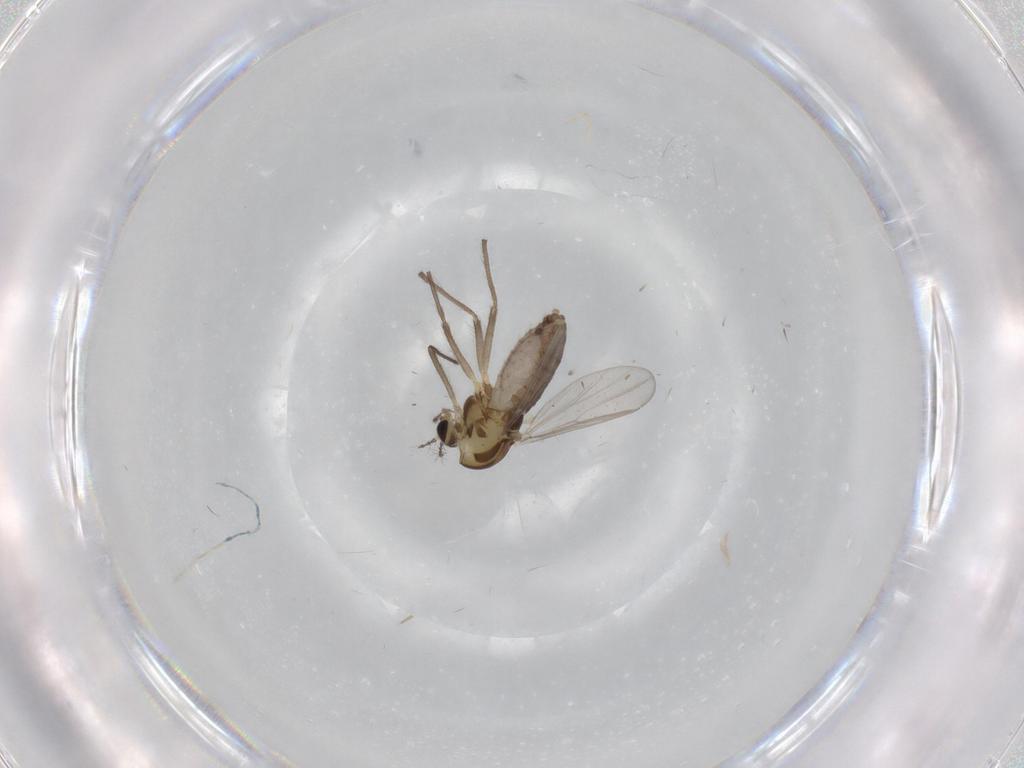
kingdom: Animalia
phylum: Arthropoda
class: Insecta
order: Diptera
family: Chironomidae
